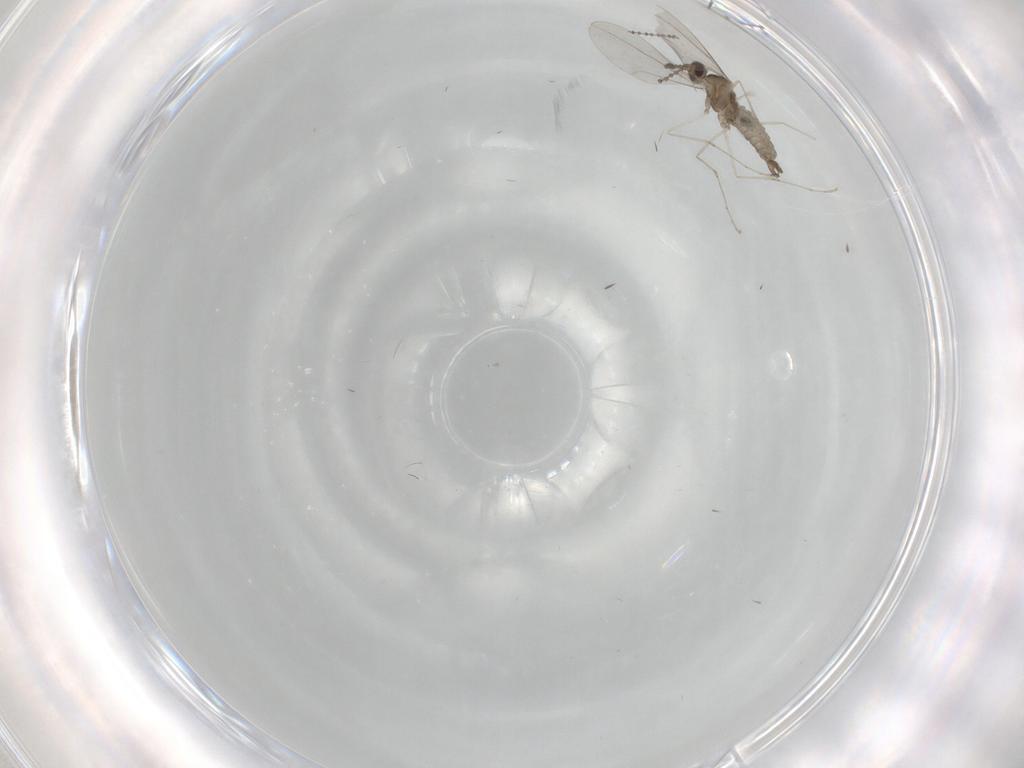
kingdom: Animalia
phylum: Arthropoda
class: Insecta
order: Diptera
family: Cecidomyiidae
